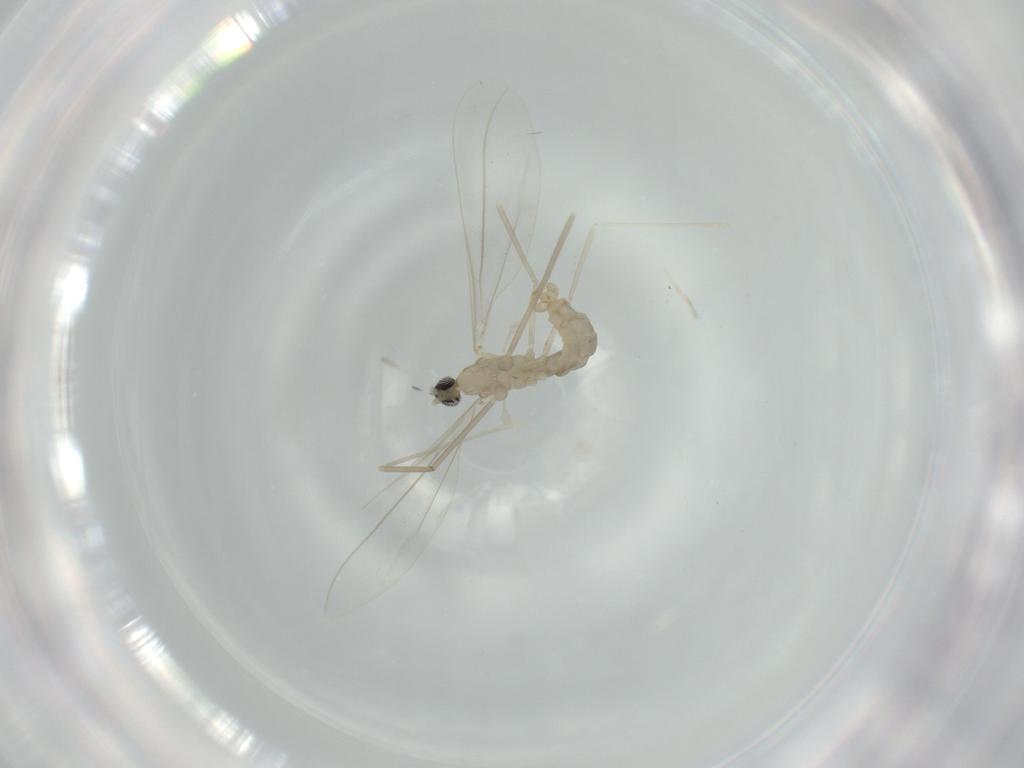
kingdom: Animalia
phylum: Arthropoda
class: Insecta
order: Diptera
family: Cecidomyiidae
